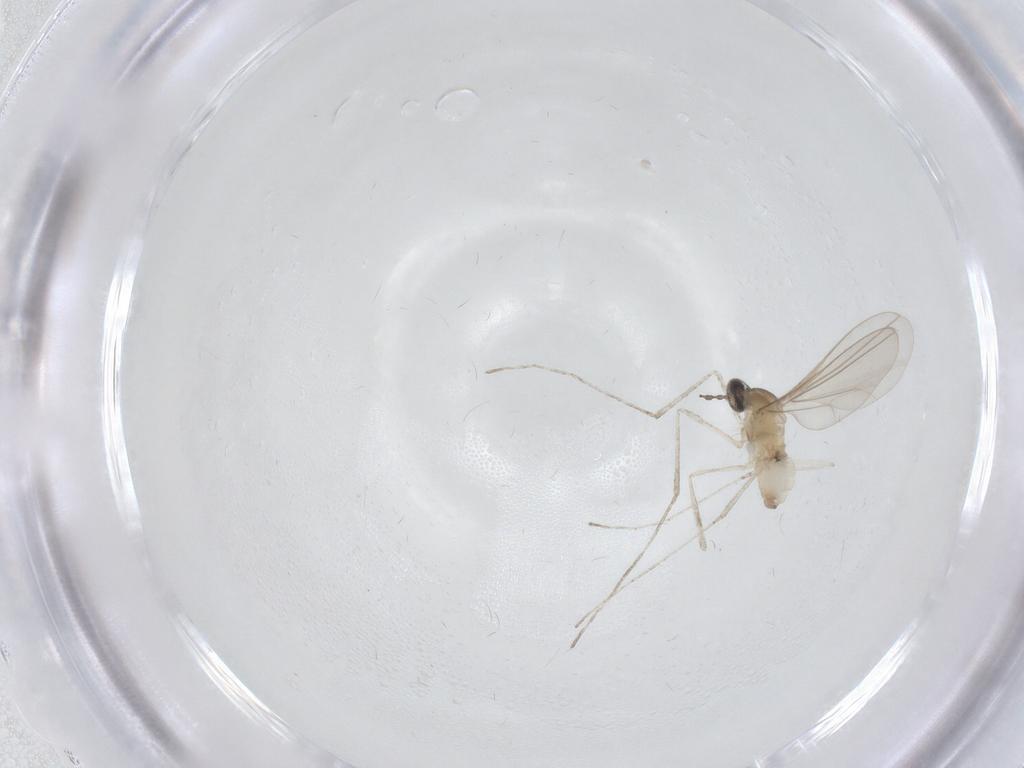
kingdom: Animalia
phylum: Arthropoda
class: Insecta
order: Diptera
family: Cecidomyiidae
